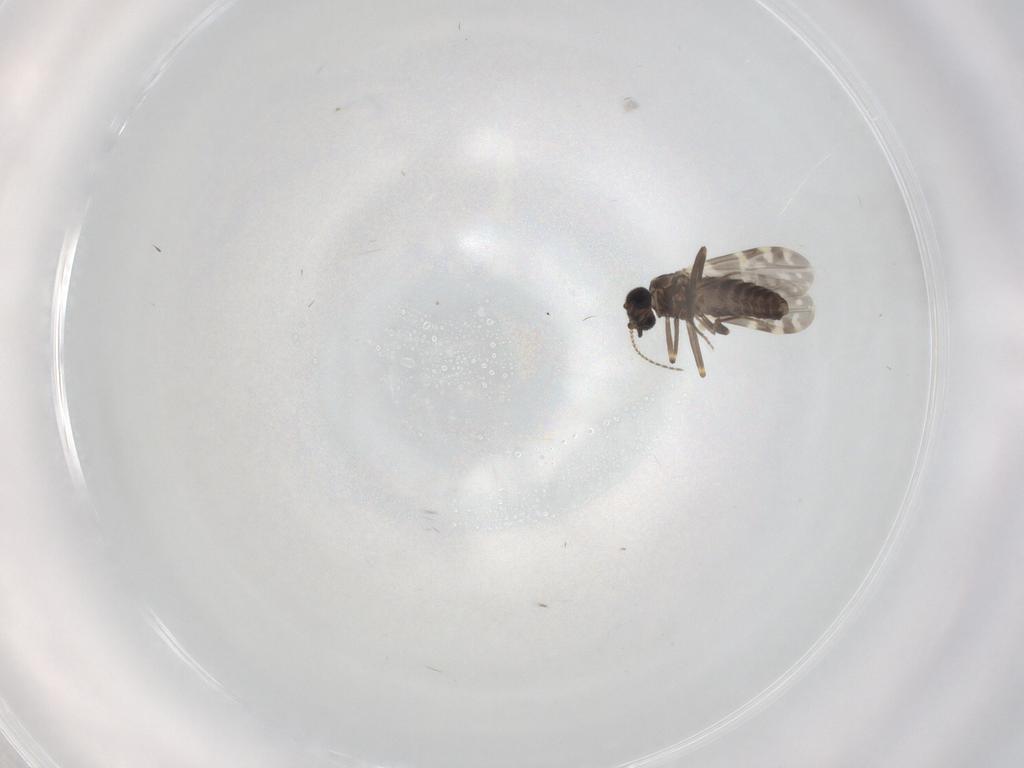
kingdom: Animalia
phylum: Arthropoda
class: Insecta
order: Diptera
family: Ceratopogonidae
